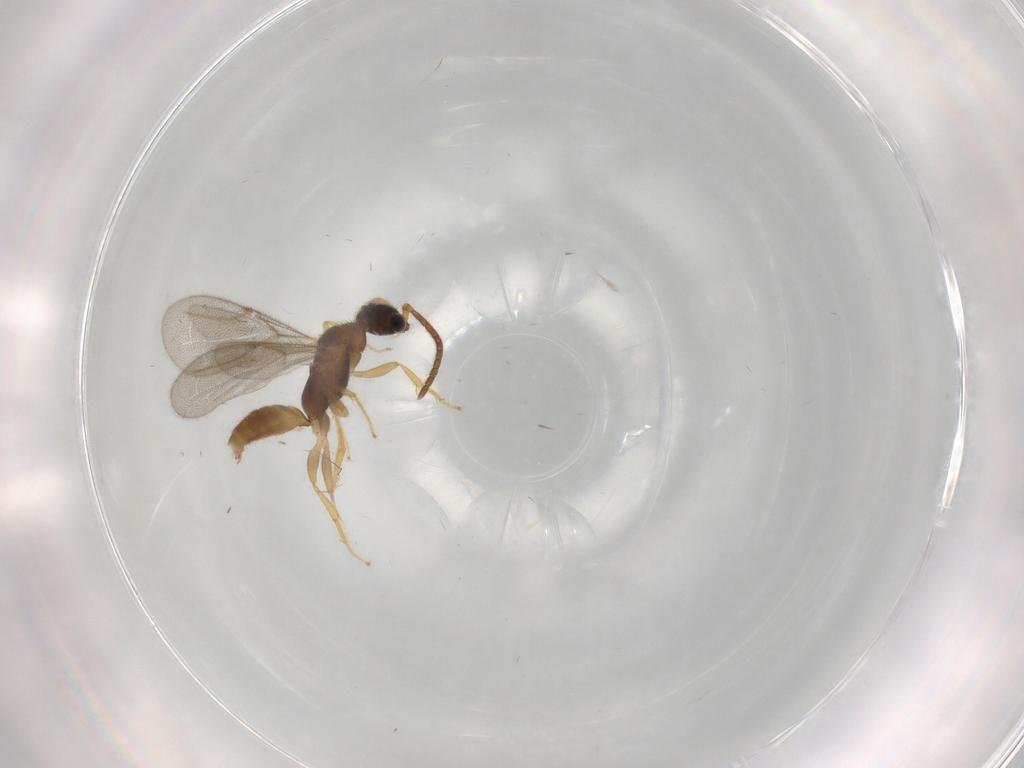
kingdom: Animalia
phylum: Arthropoda
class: Insecta
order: Hymenoptera
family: Bethylidae
